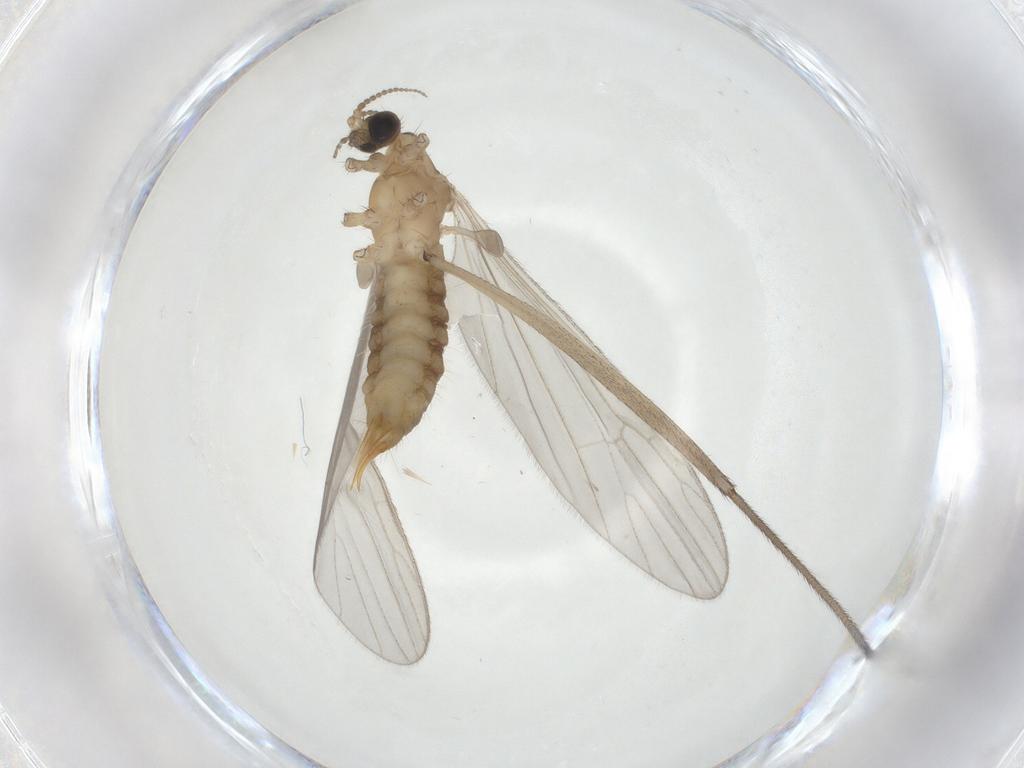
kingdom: Animalia
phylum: Arthropoda
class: Insecta
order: Diptera
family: Limoniidae
